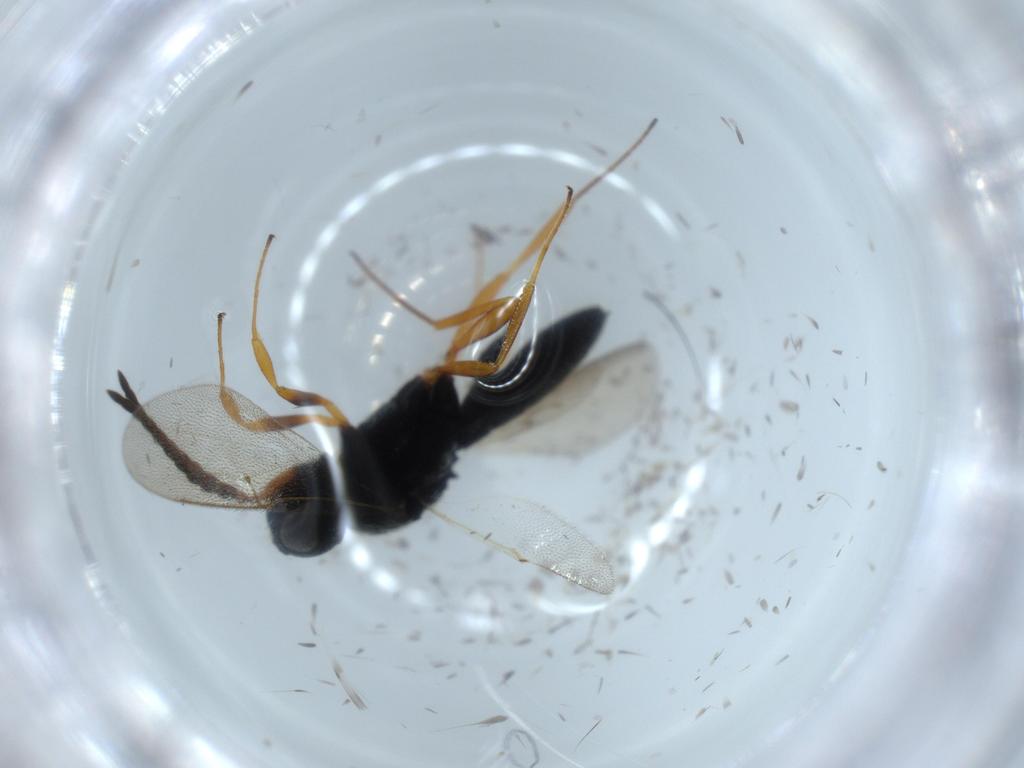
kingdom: Animalia
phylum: Arthropoda
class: Insecta
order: Hymenoptera
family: Scelionidae
